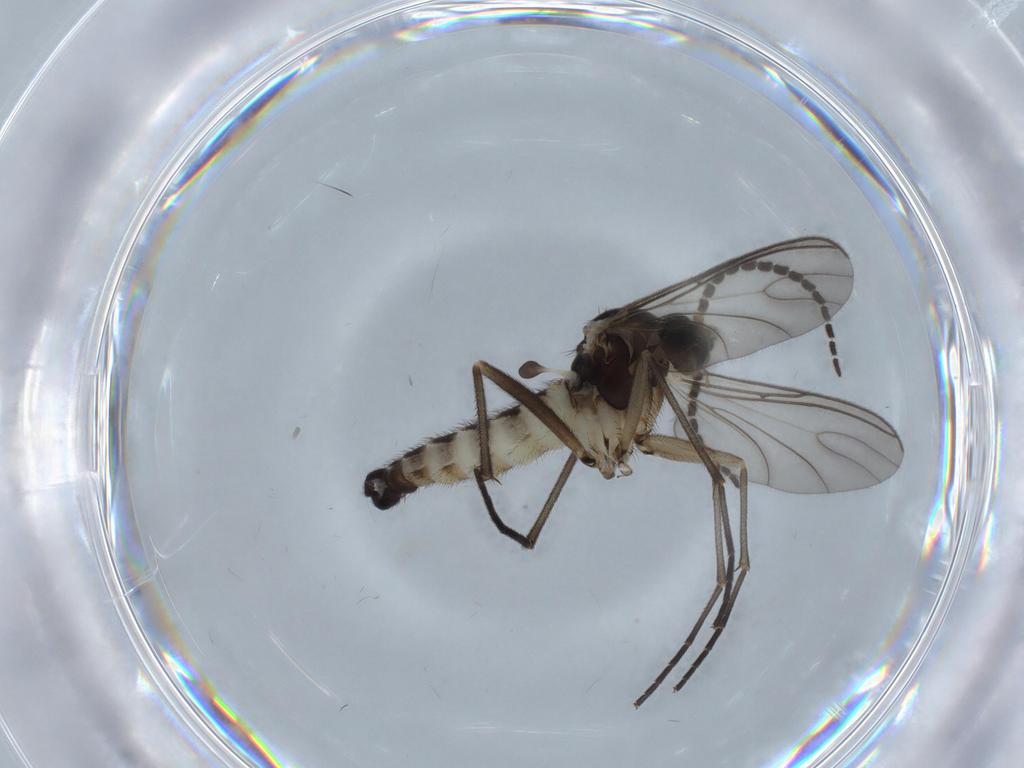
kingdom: Animalia
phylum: Arthropoda
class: Insecta
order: Diptera
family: Sciaridae
